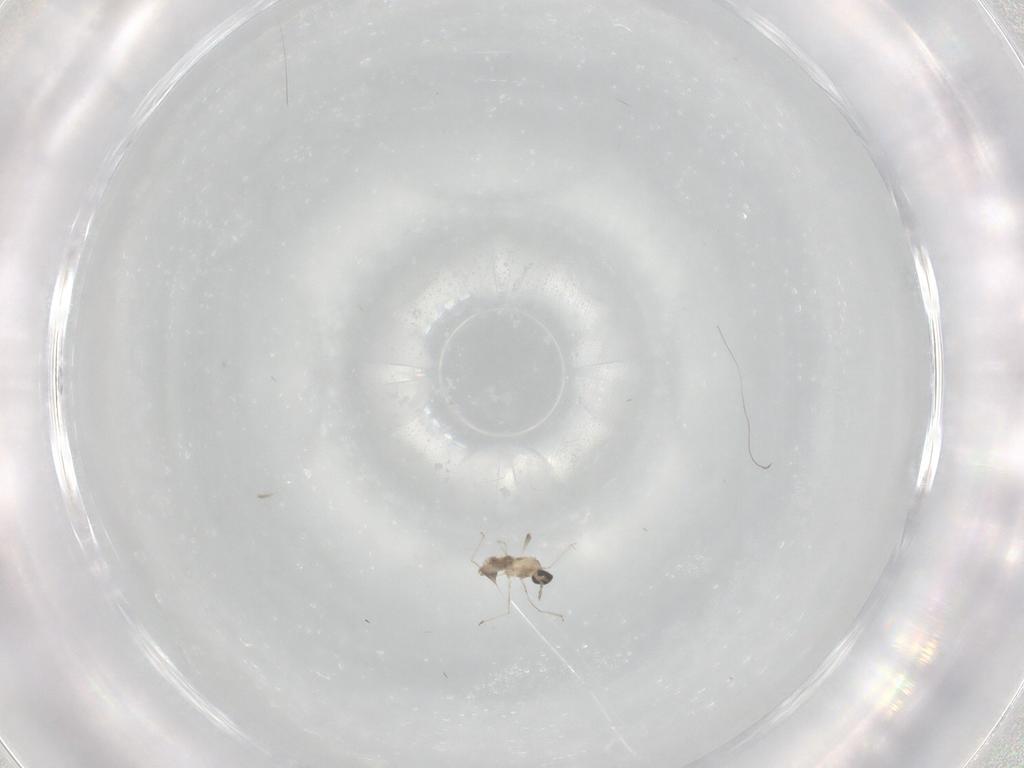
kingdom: Animalia
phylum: Arthropoda
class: Insecta
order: Diptera
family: Cecidomyiidae
